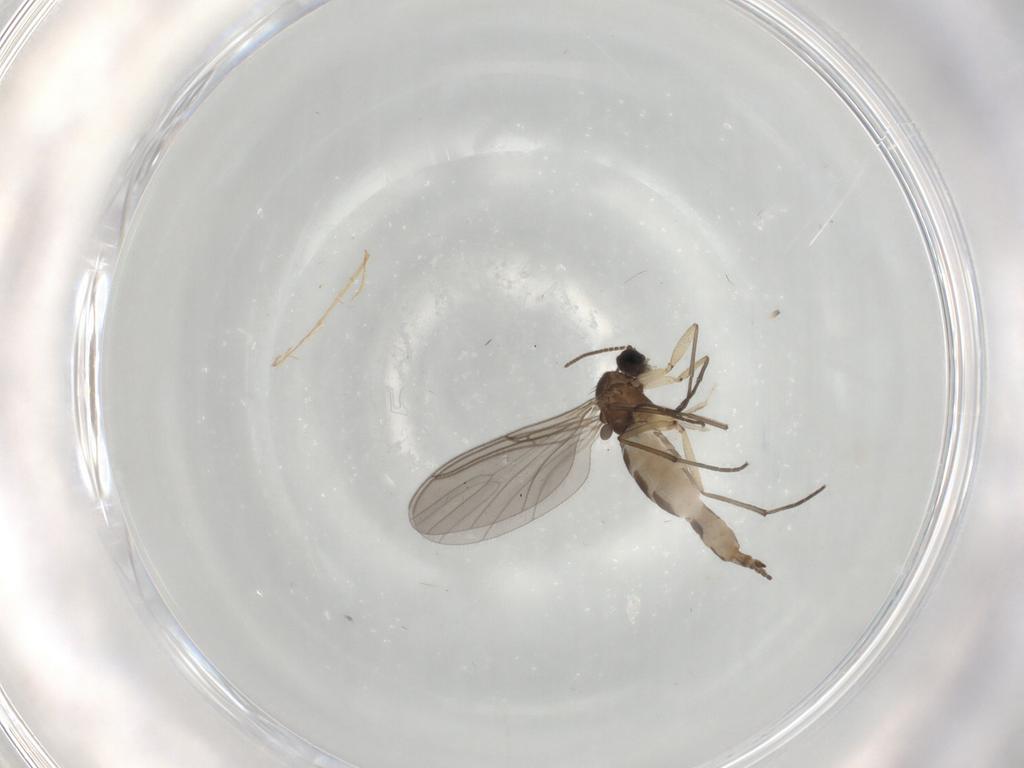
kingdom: Animalia
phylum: Arthropoda
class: Insecta
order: Diptera
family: Sciaridae
